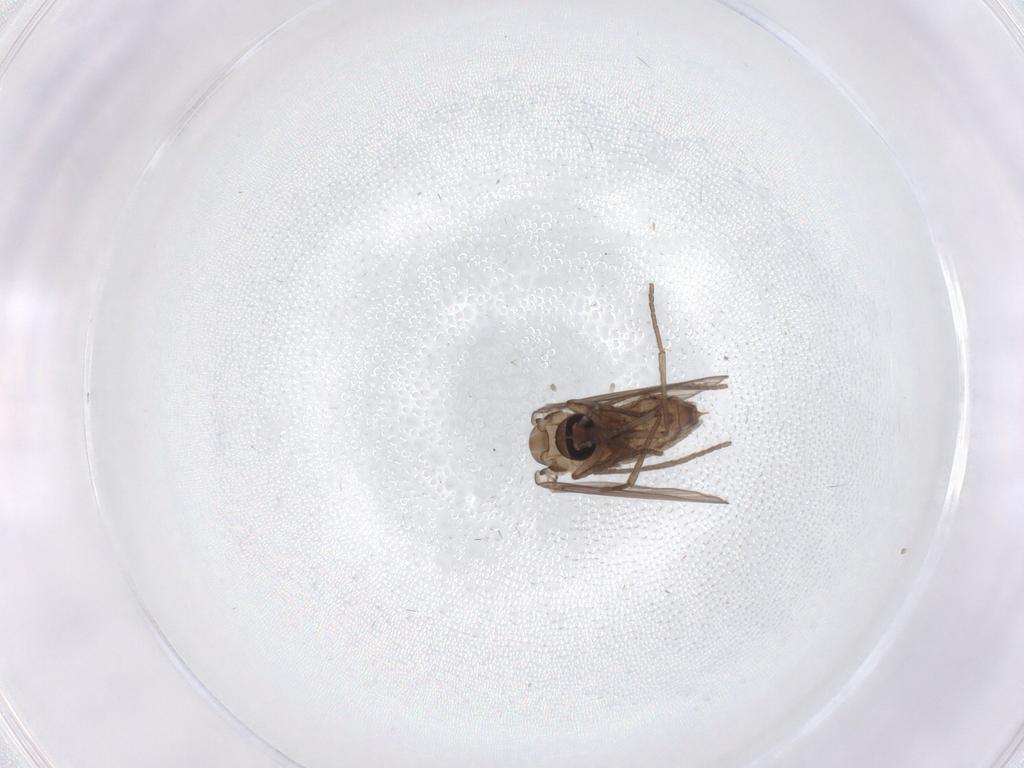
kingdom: Animalia
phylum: Arthropoda
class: Insecta
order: Diptera
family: Psychodidae
